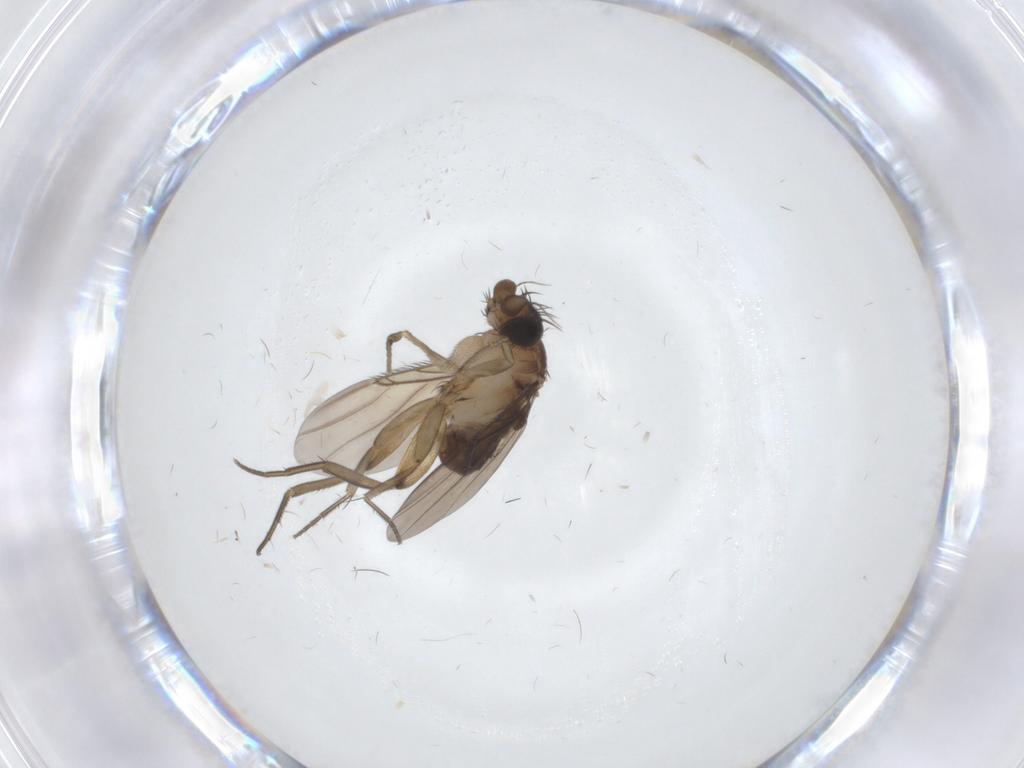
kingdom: Animalia
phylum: Arthropoda
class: Insecta
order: Diptera
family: Phoridae
